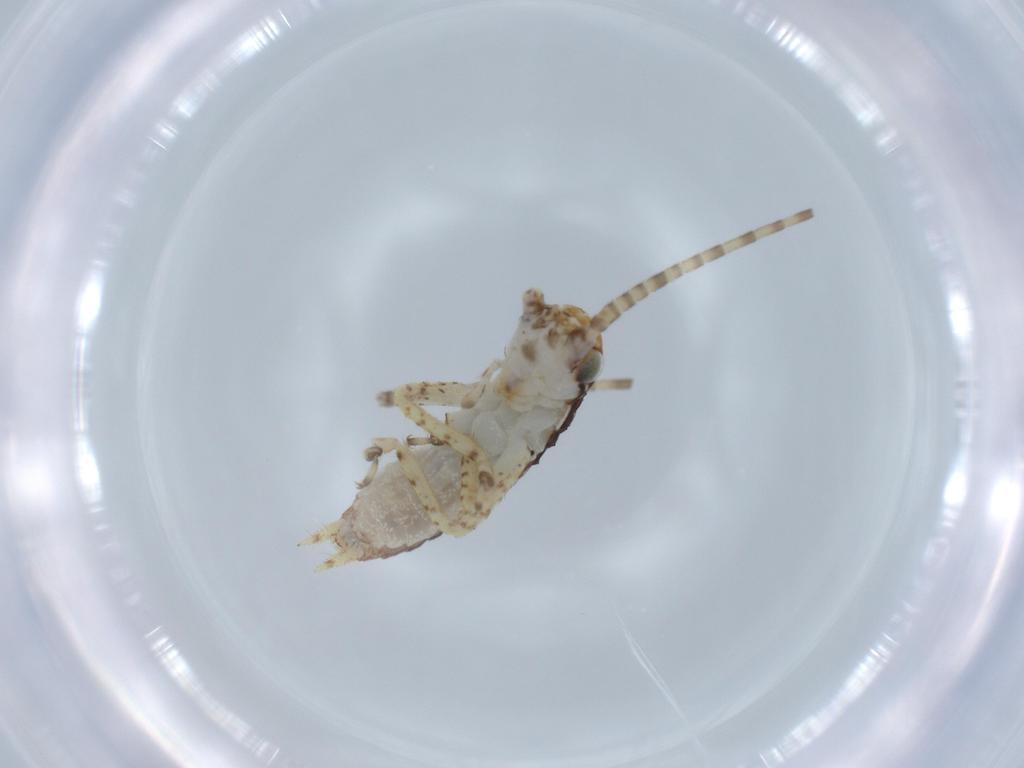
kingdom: Animalia
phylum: Arthropoda
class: Insecta
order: Orthoptera
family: Gryllidae
